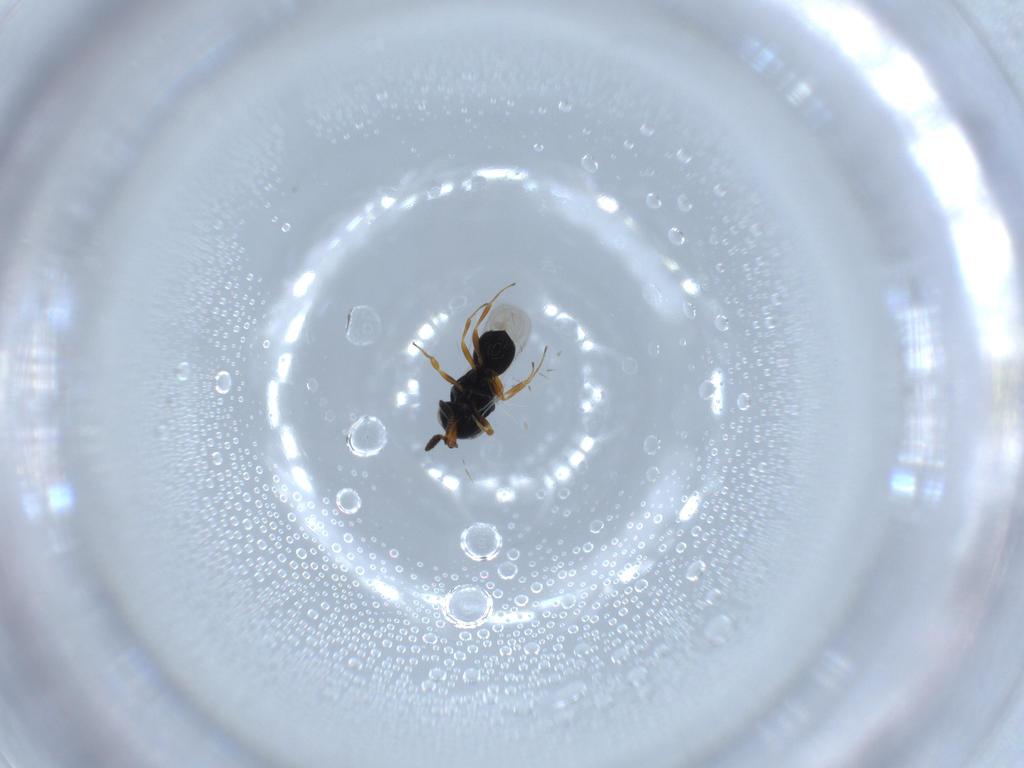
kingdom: Animalia
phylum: Arthropoda
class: Insecta
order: Hymenoptera
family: Scelionidae
